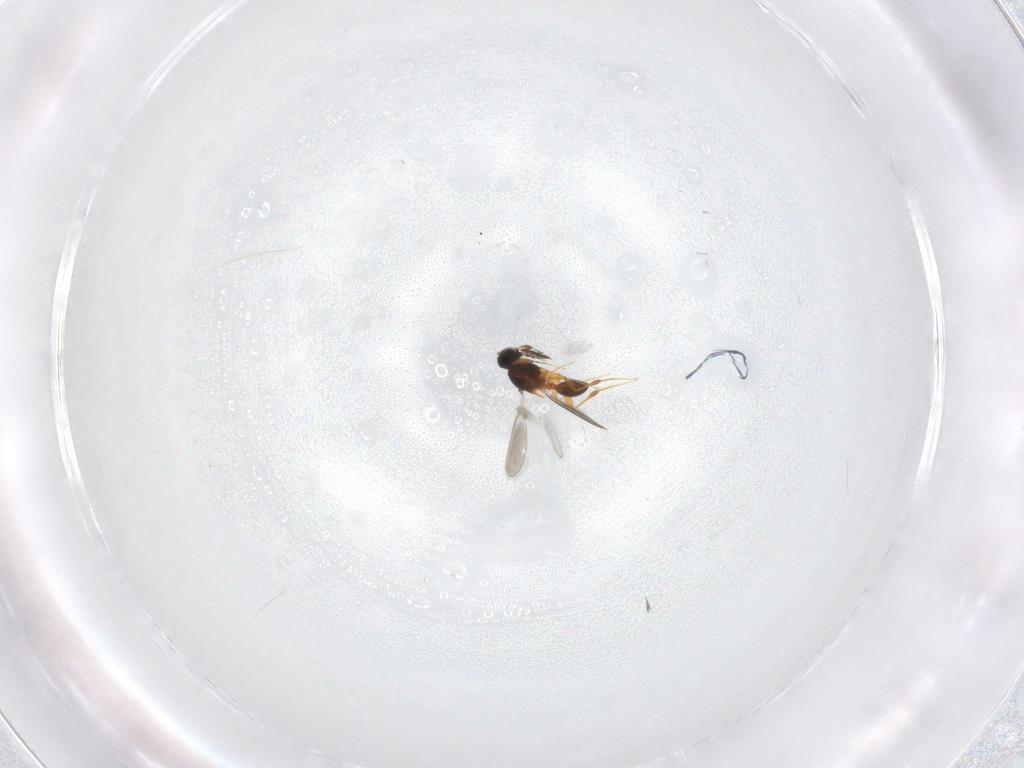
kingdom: Animalia
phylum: Arthropoda
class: Insecta
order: Hymenoptera
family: Platygastridae
